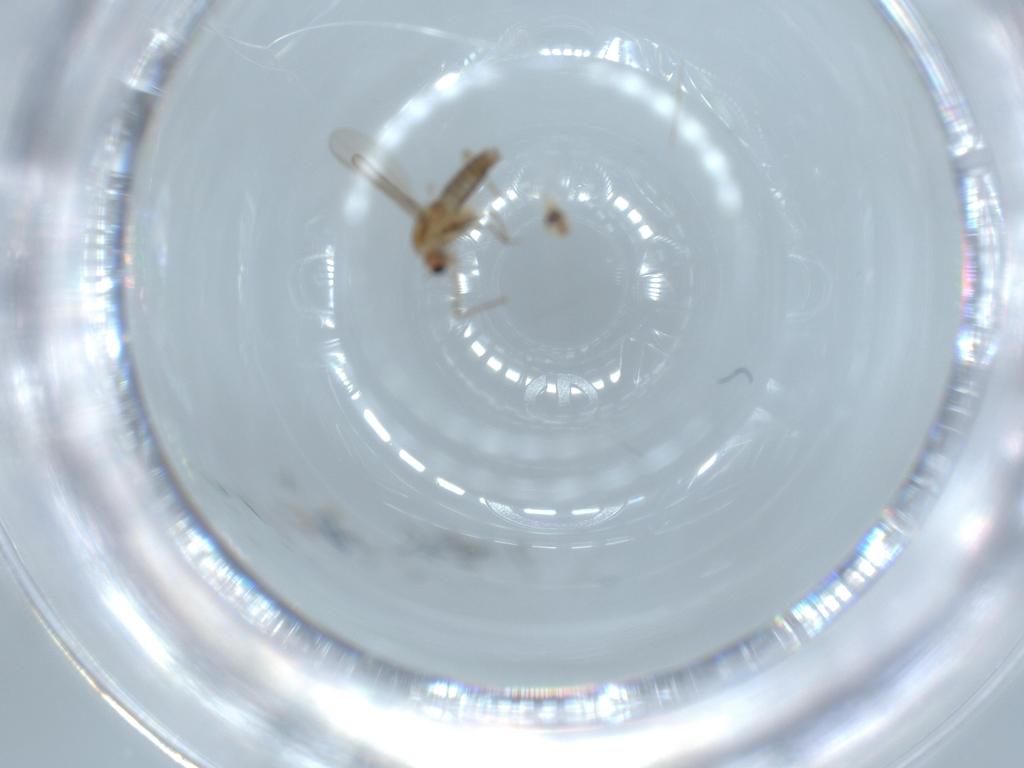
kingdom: Animalia
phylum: Arthropoda
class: Insecta
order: Diptera
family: Chironomidae
